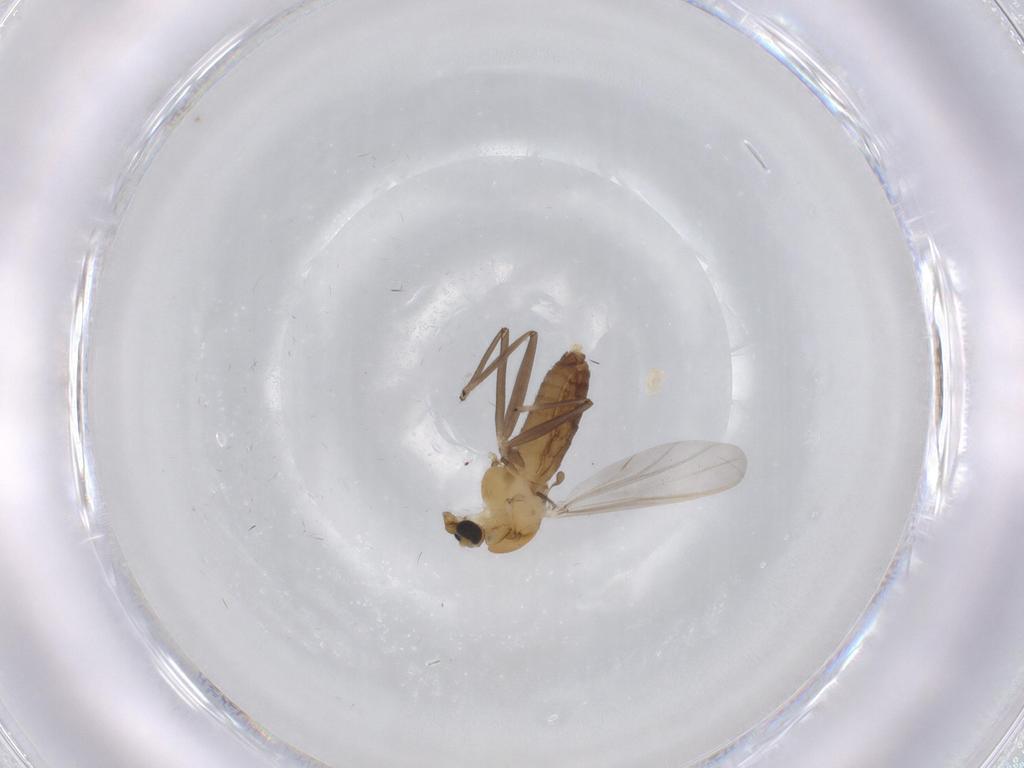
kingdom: Animalia
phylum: Arthropoda
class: Insecta
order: Diptera
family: Chironomidae
